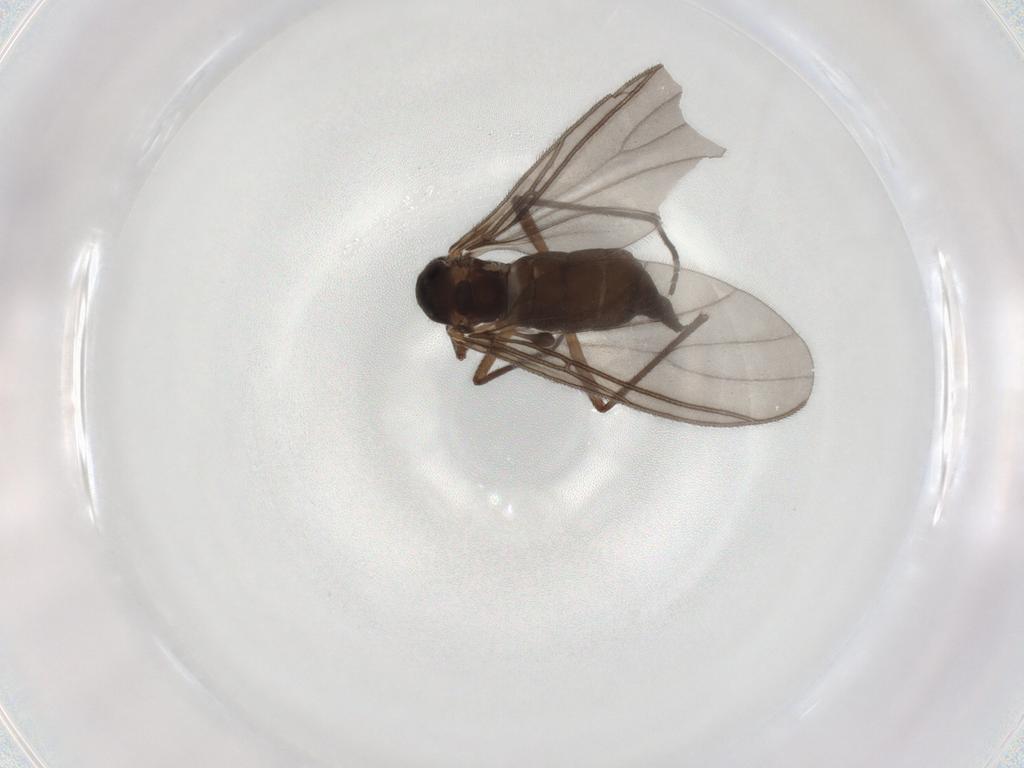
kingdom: Animalia
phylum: Arthropoda
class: Insecta
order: Diptera
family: Sciaridae
